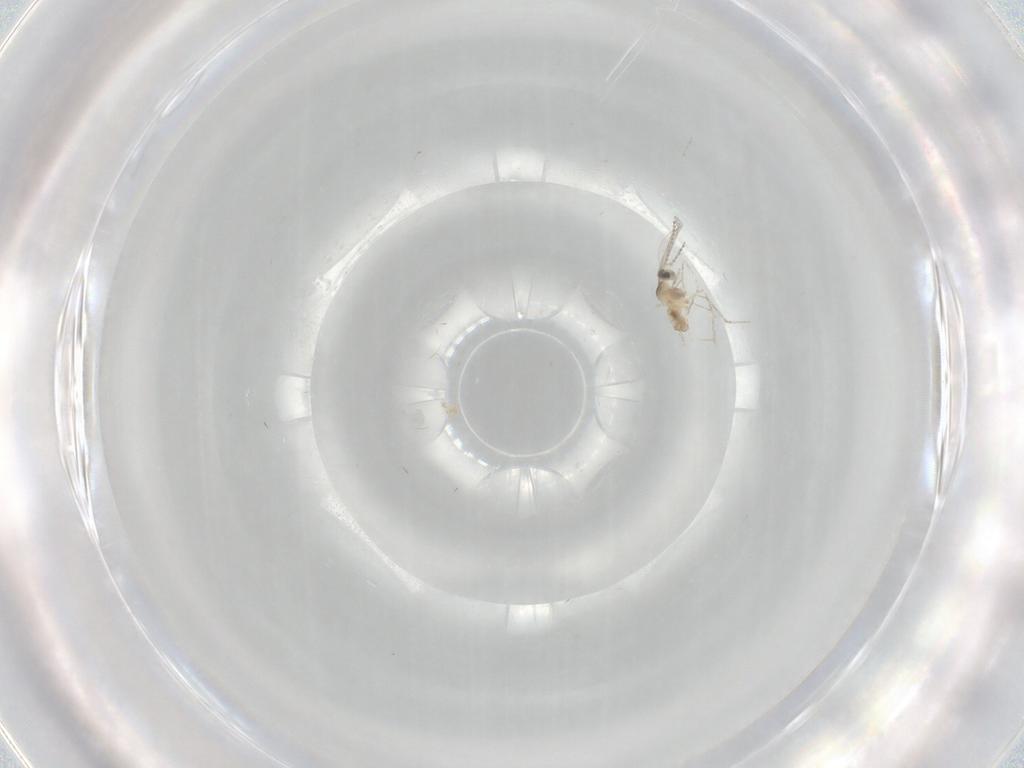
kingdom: Animalia
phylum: Arthropoda
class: Insecta
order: Diptera
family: Cecidomyiidae
